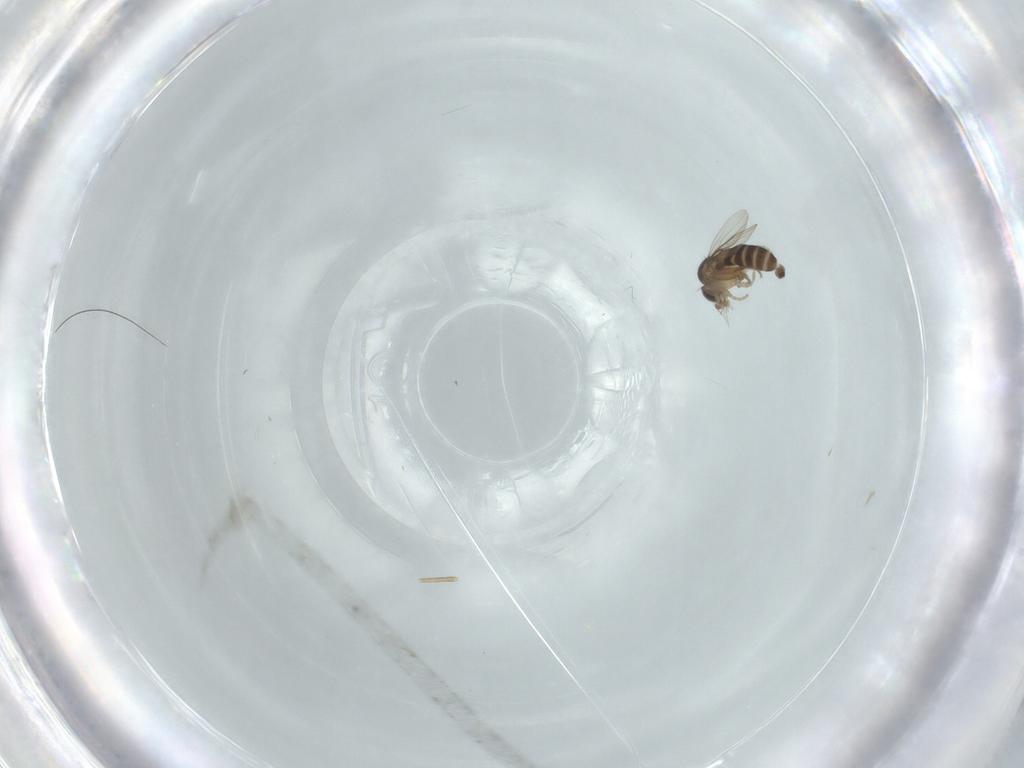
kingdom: Animalia
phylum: Arthropoda
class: Insecta
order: Diptera
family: Phoridae
